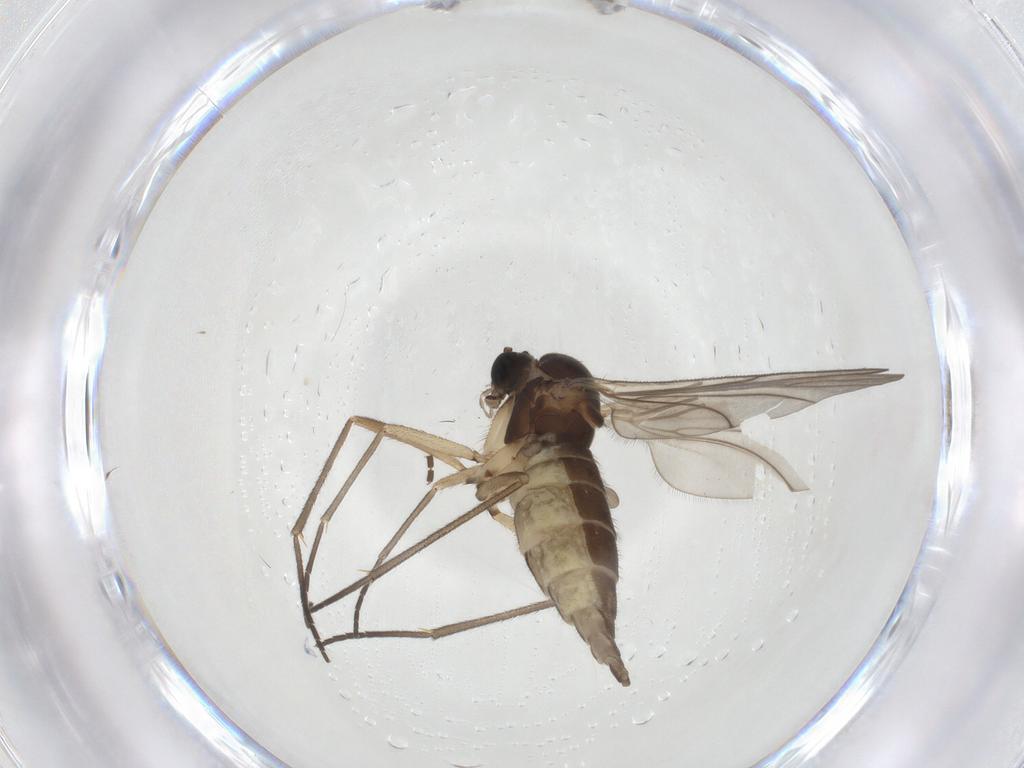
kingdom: Animalia
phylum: Arthropoda
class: Insecta
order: Diptera
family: Sciaridae
